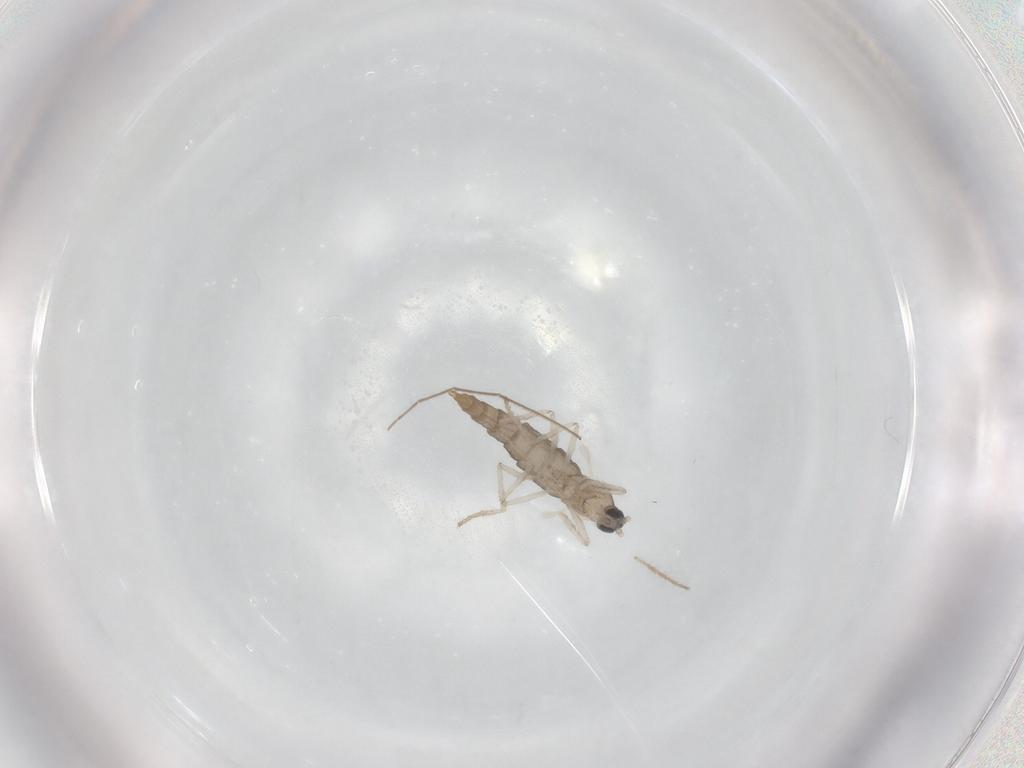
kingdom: Animalia
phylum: Arthropoda
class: Insecta
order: Diptera
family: Cecidomyiidae
